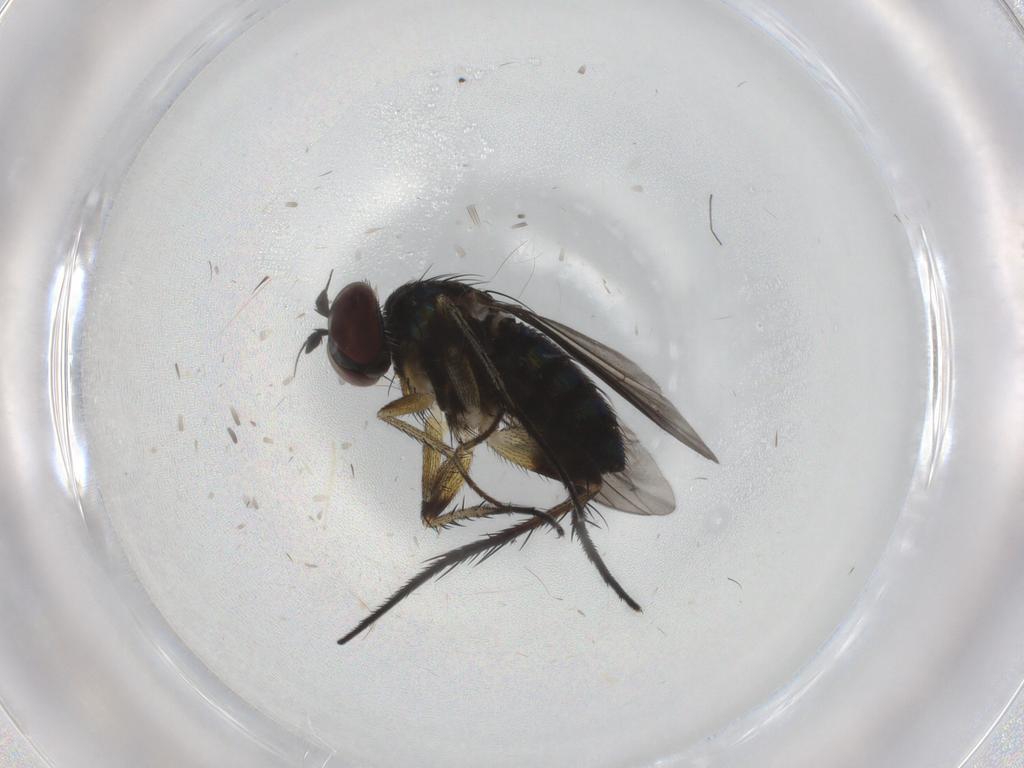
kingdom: Animalia
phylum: Arthropoda
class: Insecta
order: Diptera
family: Dolichopodidae
